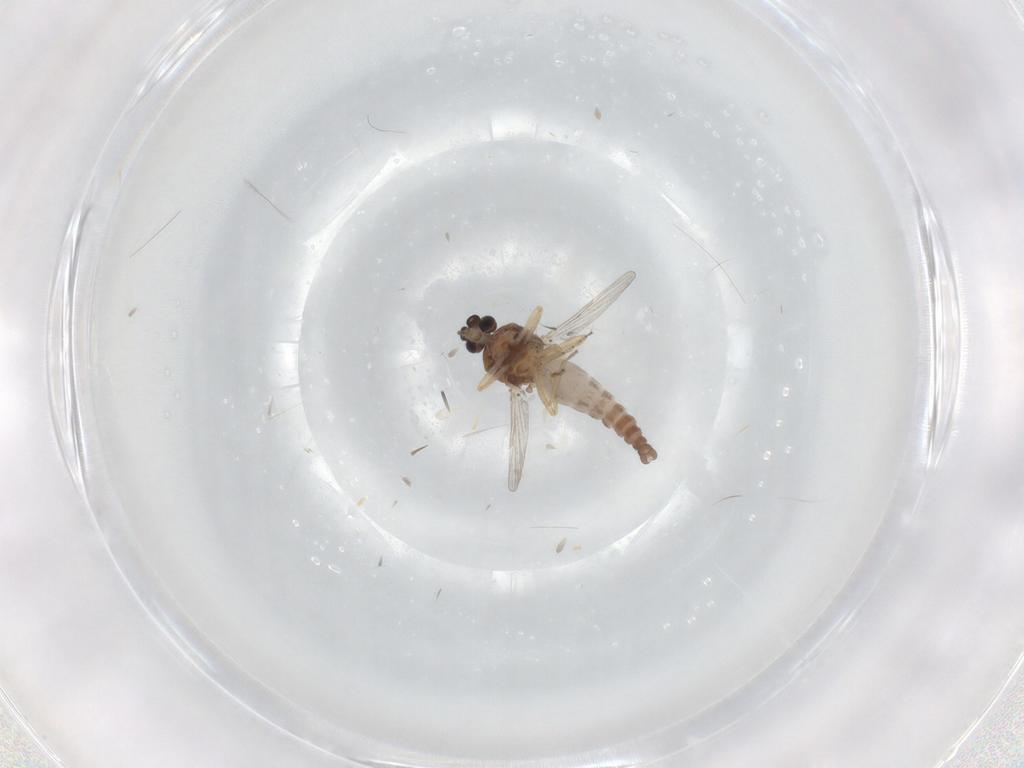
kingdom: Animalia
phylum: Arthropoda
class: Insecta
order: Diptera
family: Ceratopogonidae
